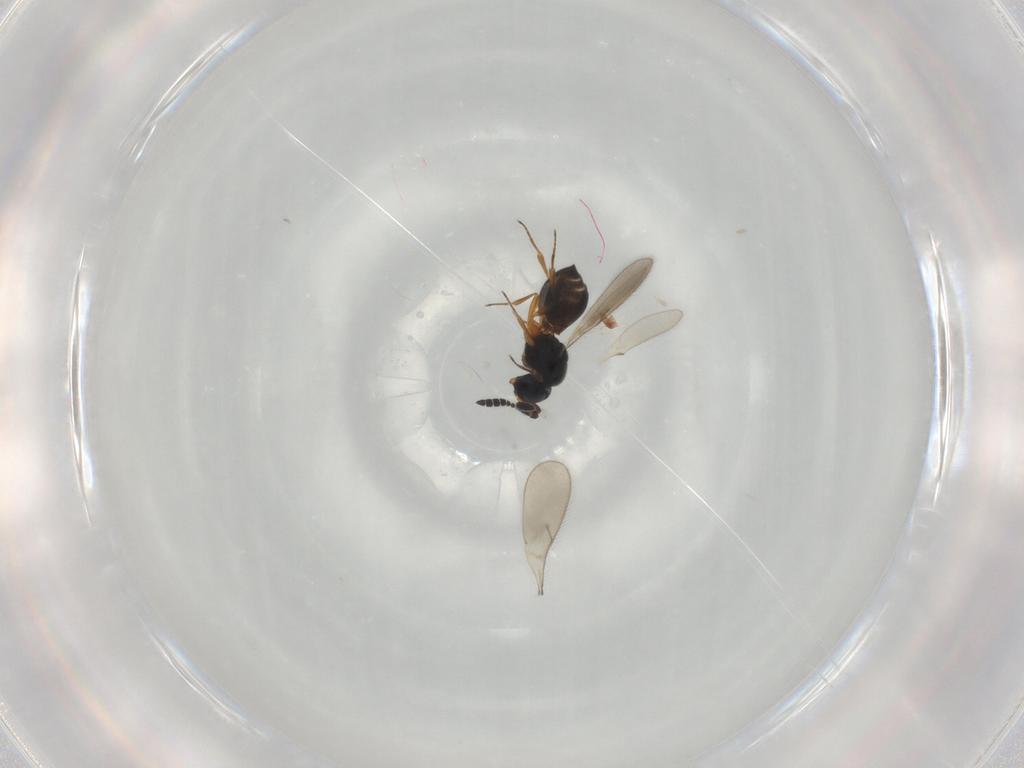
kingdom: Animalia
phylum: Arthropoda
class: Insecta
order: Hymenoptera
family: Scelionidae
